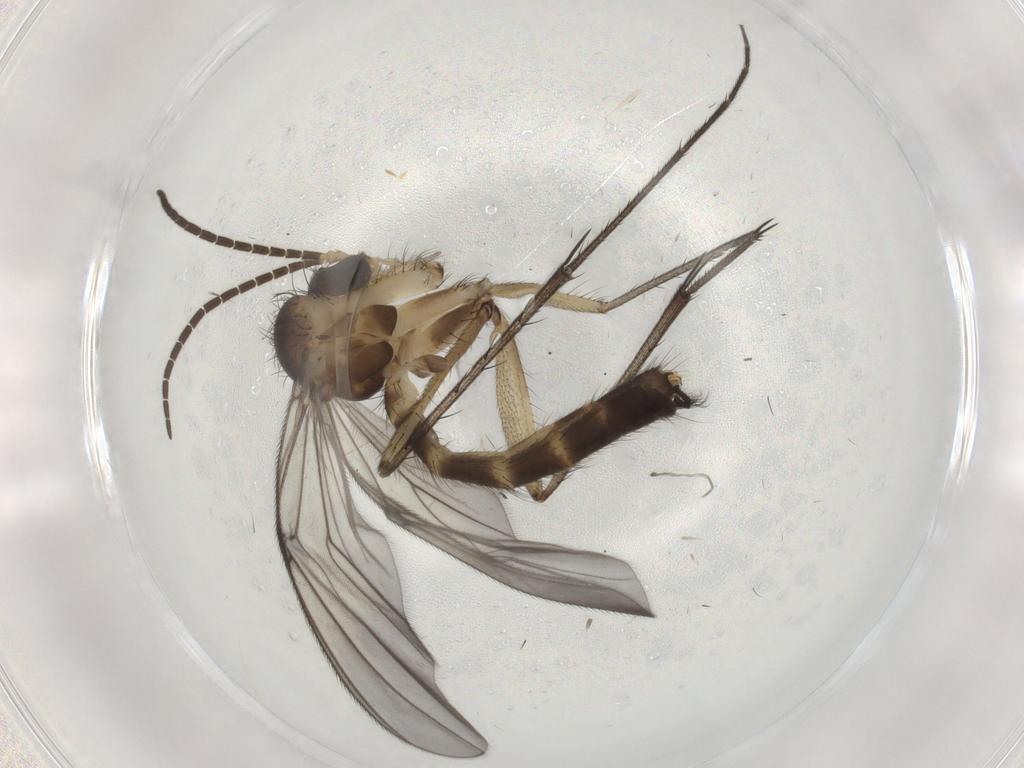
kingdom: Animalia
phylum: Arthropoda
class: Insecta
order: Diptera
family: Mycetophilidae
